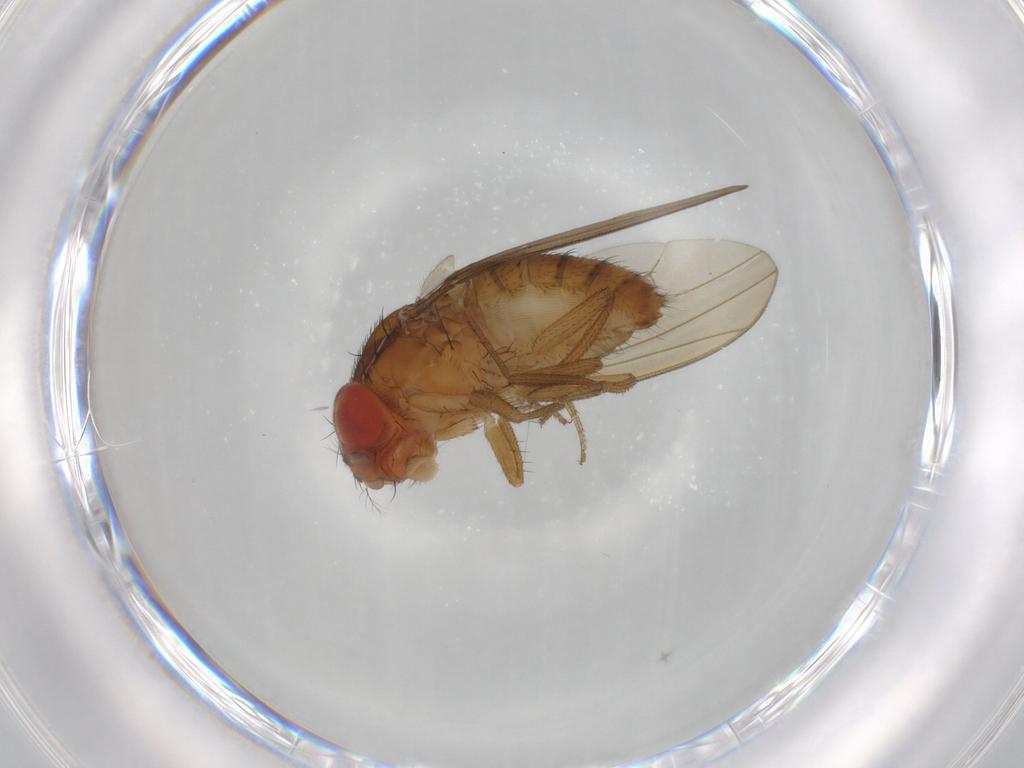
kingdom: Animalia
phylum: Arthropoda
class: Insecta
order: Diptera
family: Drosophilidae
